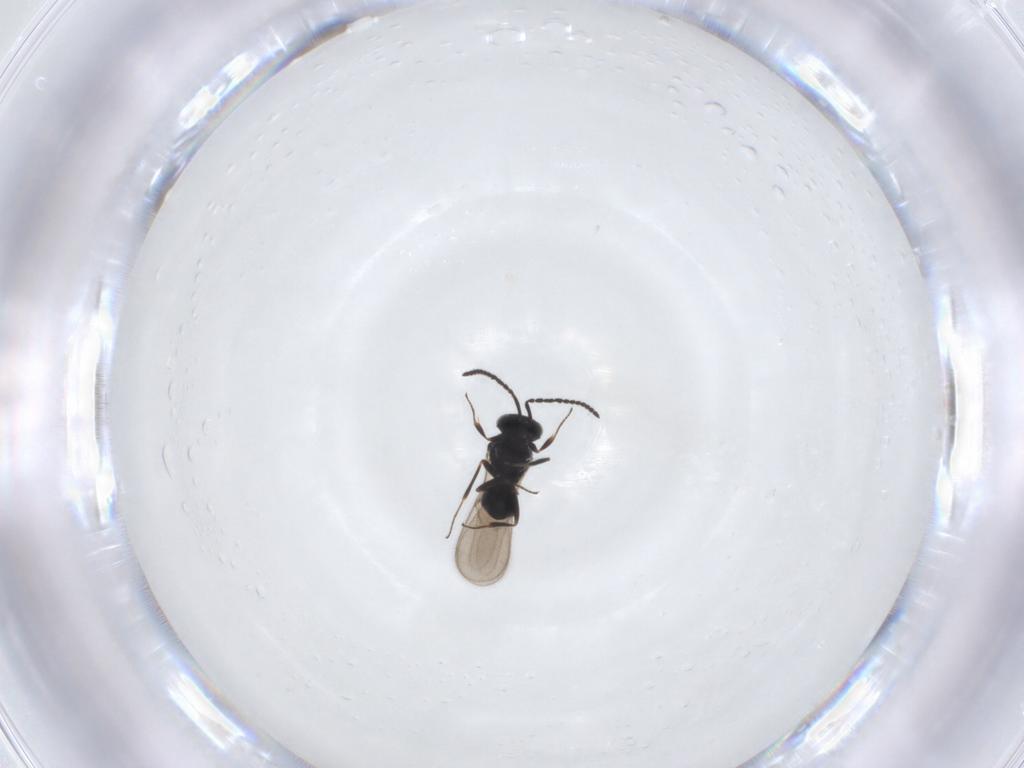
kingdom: Animalia
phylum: Arthropoda
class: Insecta
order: Hymenoptera
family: Scelionidae
